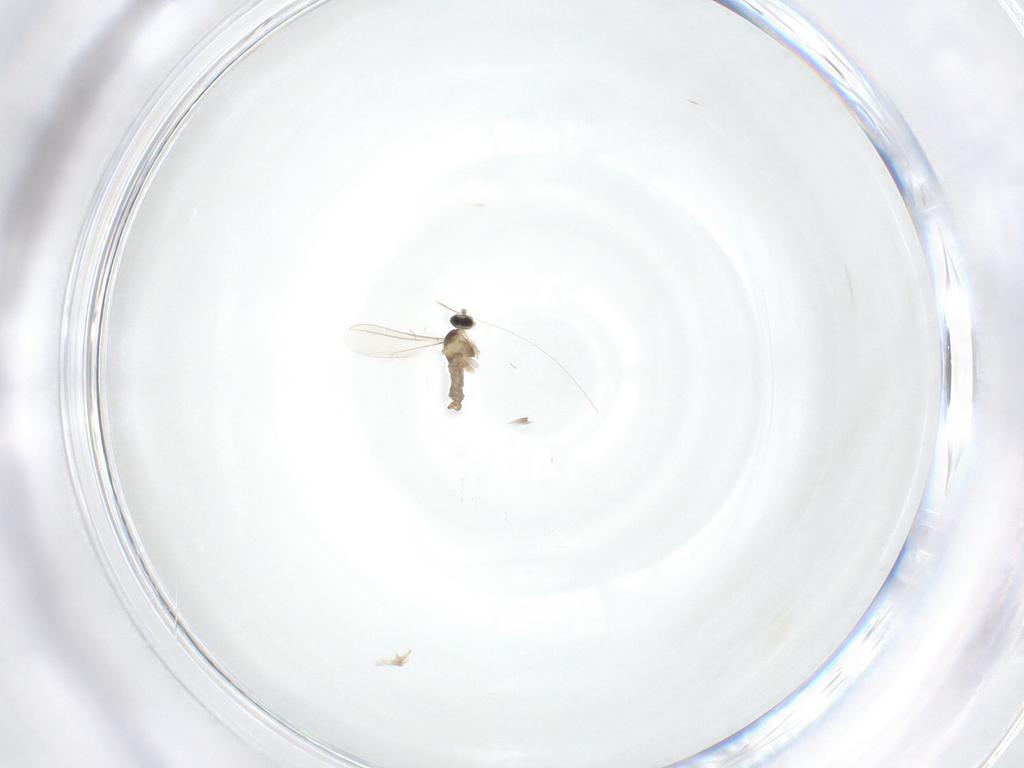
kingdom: Animalia
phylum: Arthropoda
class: Insecta
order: Diptera
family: Cecidomyiidae
